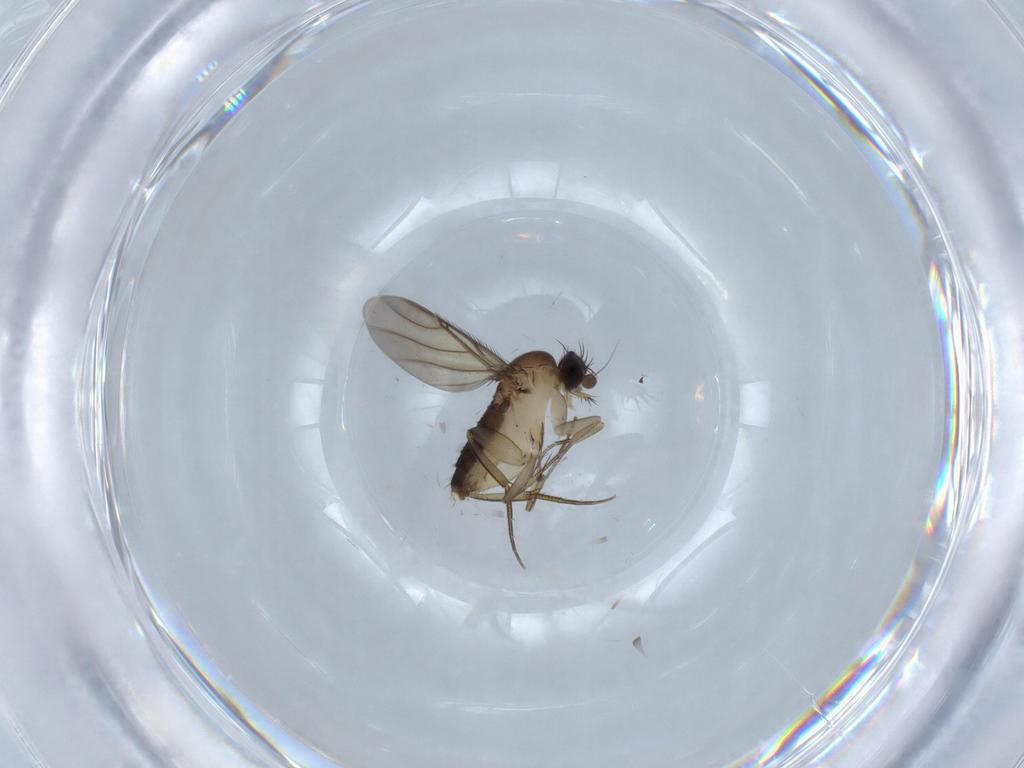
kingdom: Animalia
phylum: Arthropoda
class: Insecta
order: Diptera
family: Phoridae
